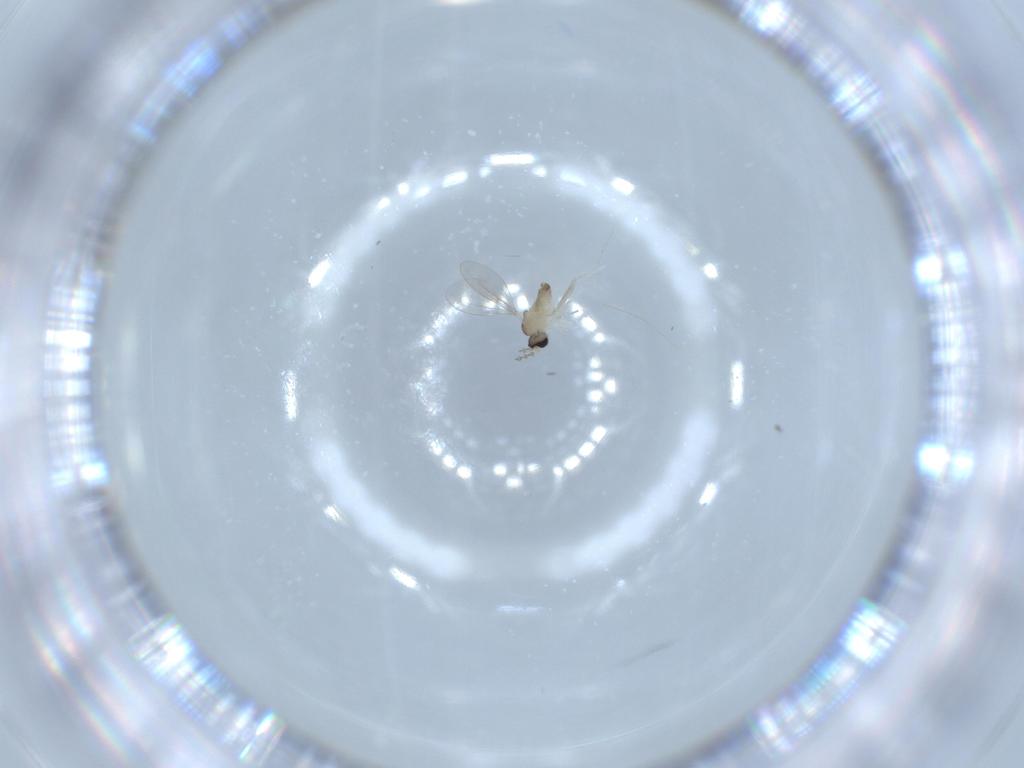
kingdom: Animalia
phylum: Arthropoda
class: Insecta
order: Diptera
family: Cecidomyiidae
